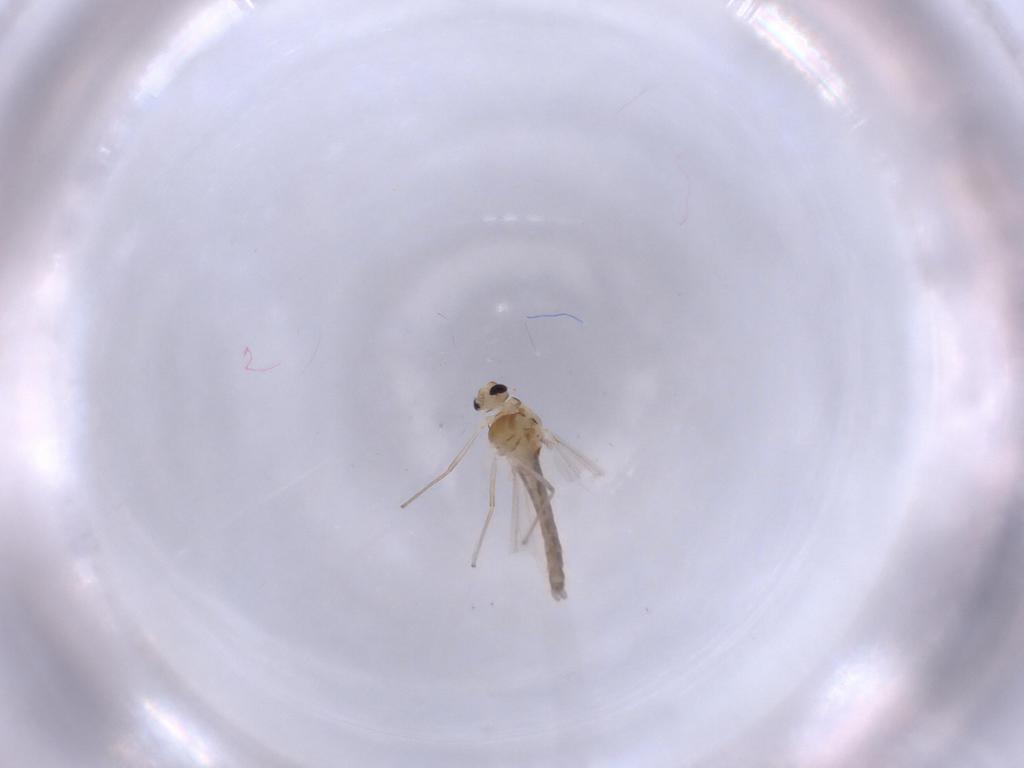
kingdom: Animalia
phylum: Arthropoda
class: Insecta
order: Diptera
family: Chironomidae
